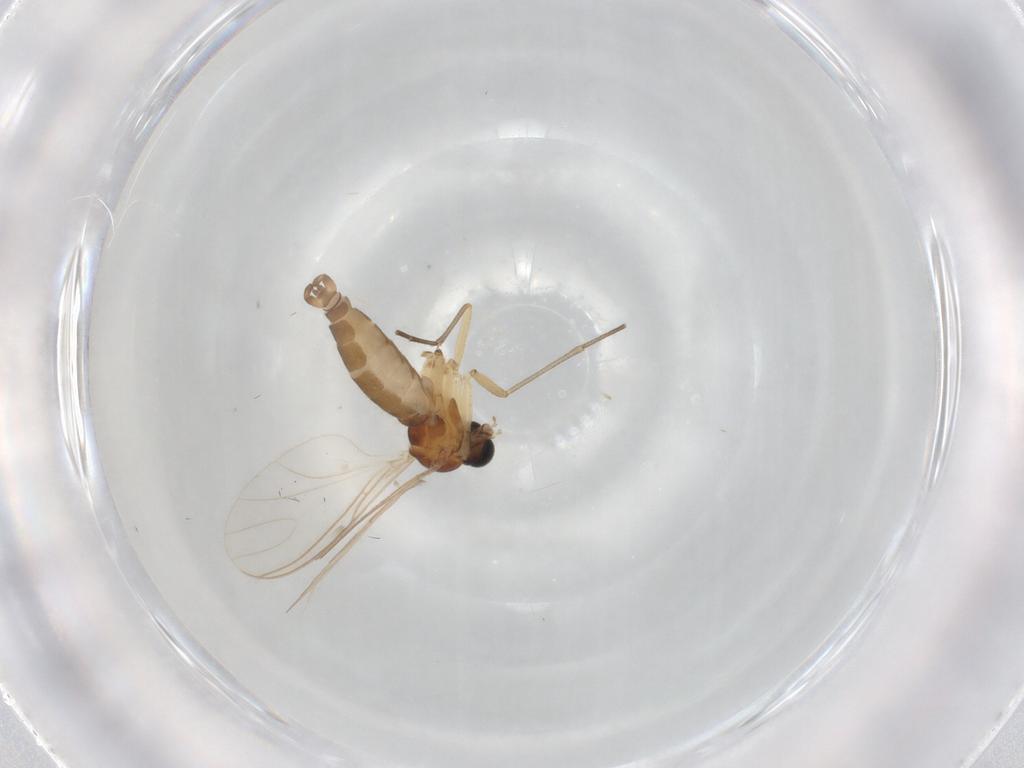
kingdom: Animalia
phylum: Arthropoda
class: Insecta
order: Diptera
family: Sciaridae
